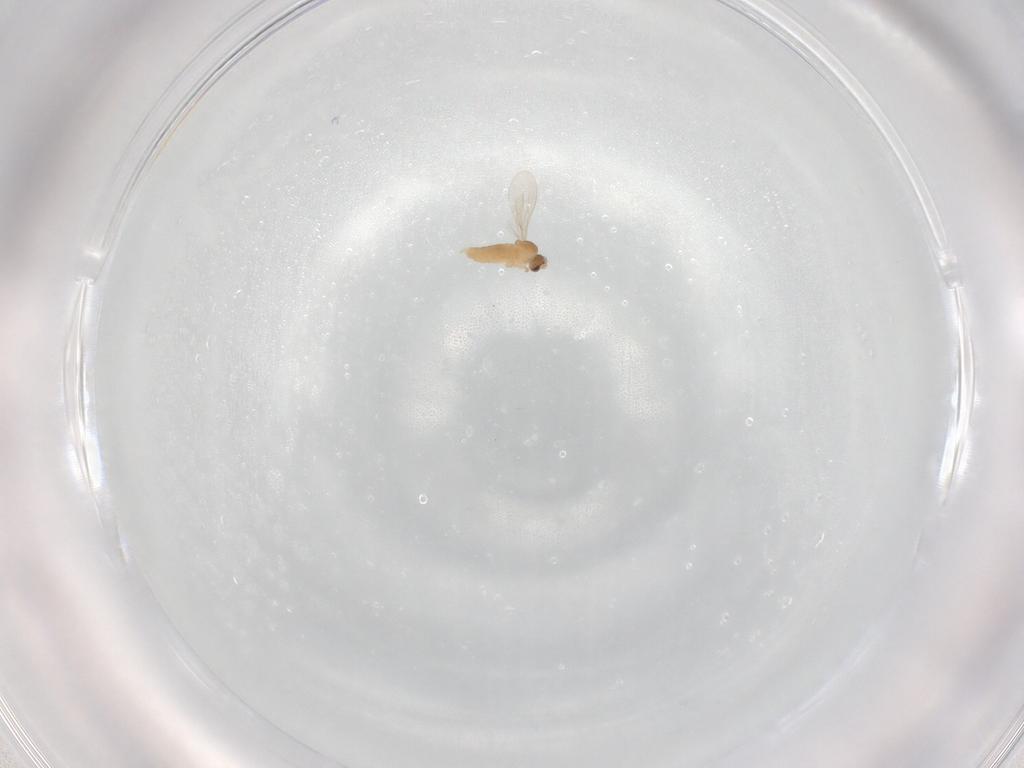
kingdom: Animalia
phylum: Arthropoda
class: Insecta
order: Diptera
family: Cecidomyiidae
